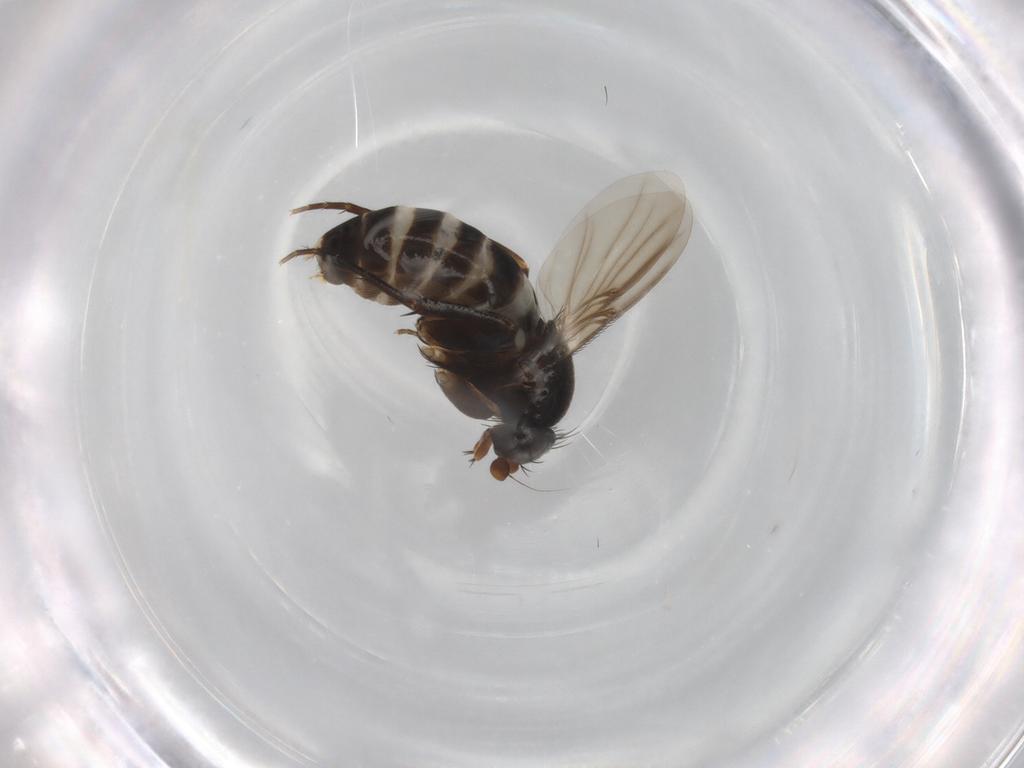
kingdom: Animalia
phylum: Arthropoda
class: Insecta
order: Diptera
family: Phoridae
